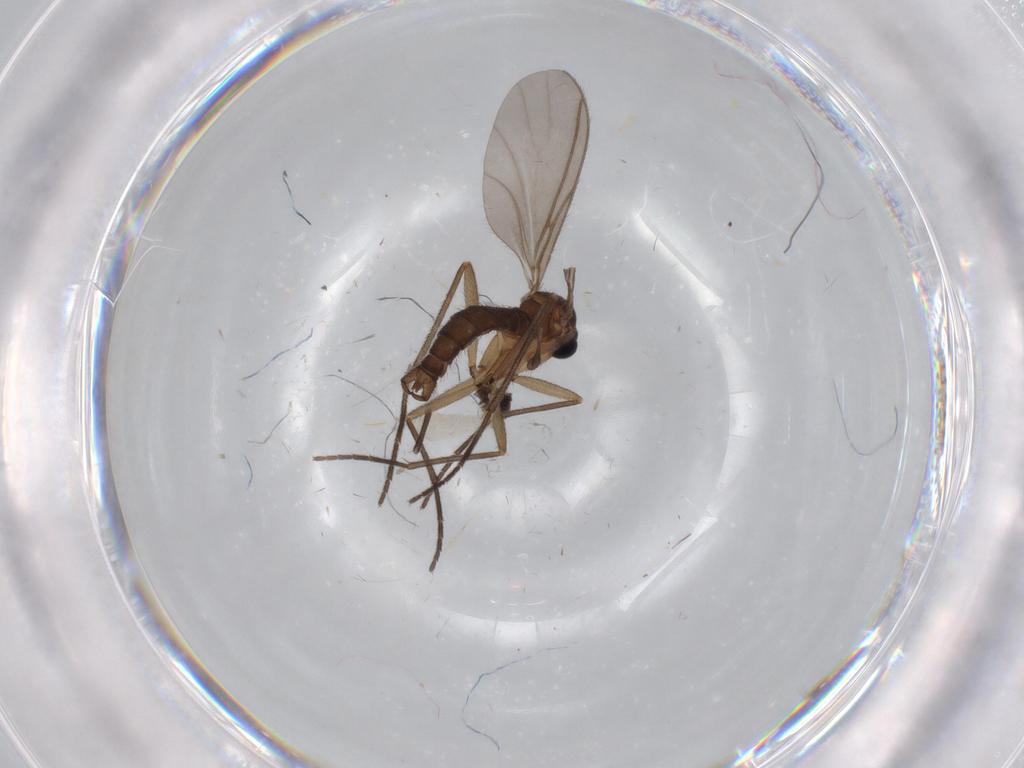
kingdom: Animalia
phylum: Arthropoda
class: Insecta
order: Diptera
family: Cecidomyiidae
